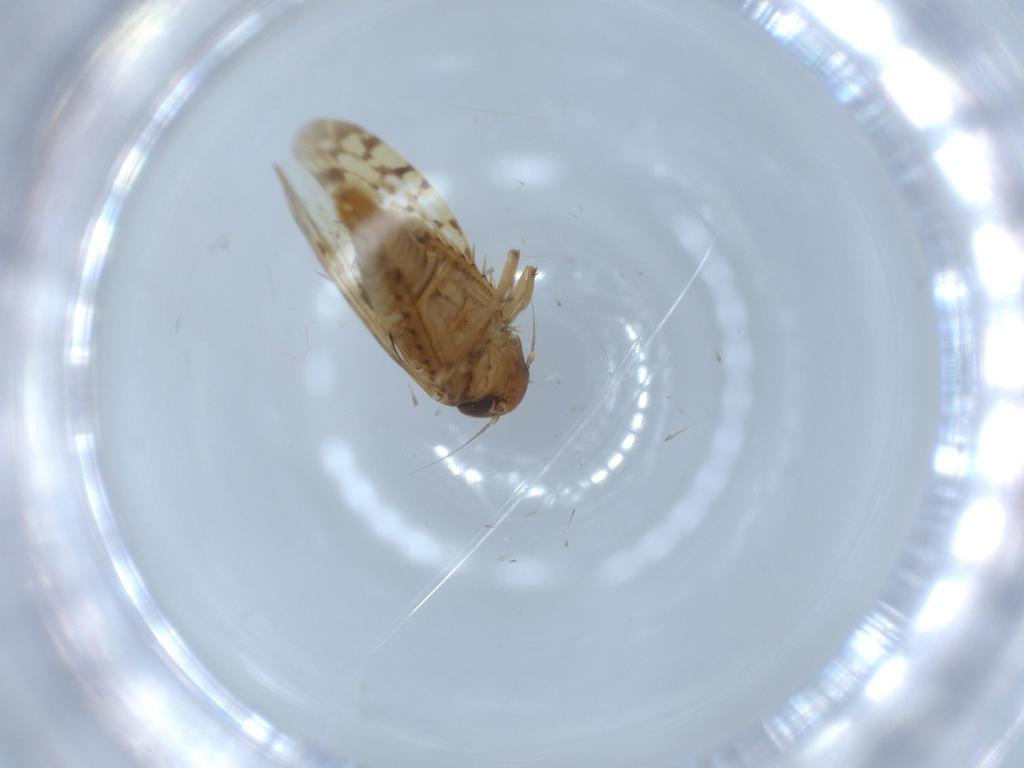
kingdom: Animalia
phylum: Arthropoda
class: Insecta
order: Hemiptera
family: Cicadellidae
